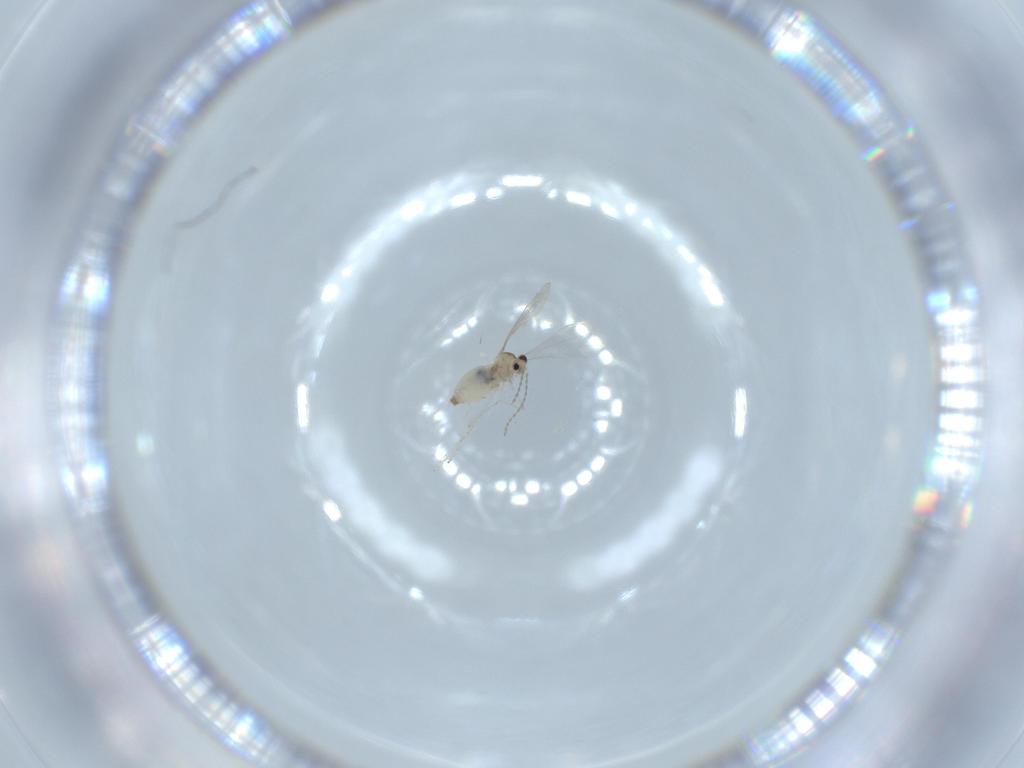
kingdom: Animalia
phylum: Arthropoda
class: Insecta
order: Diptera
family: Cecidomyiidae
